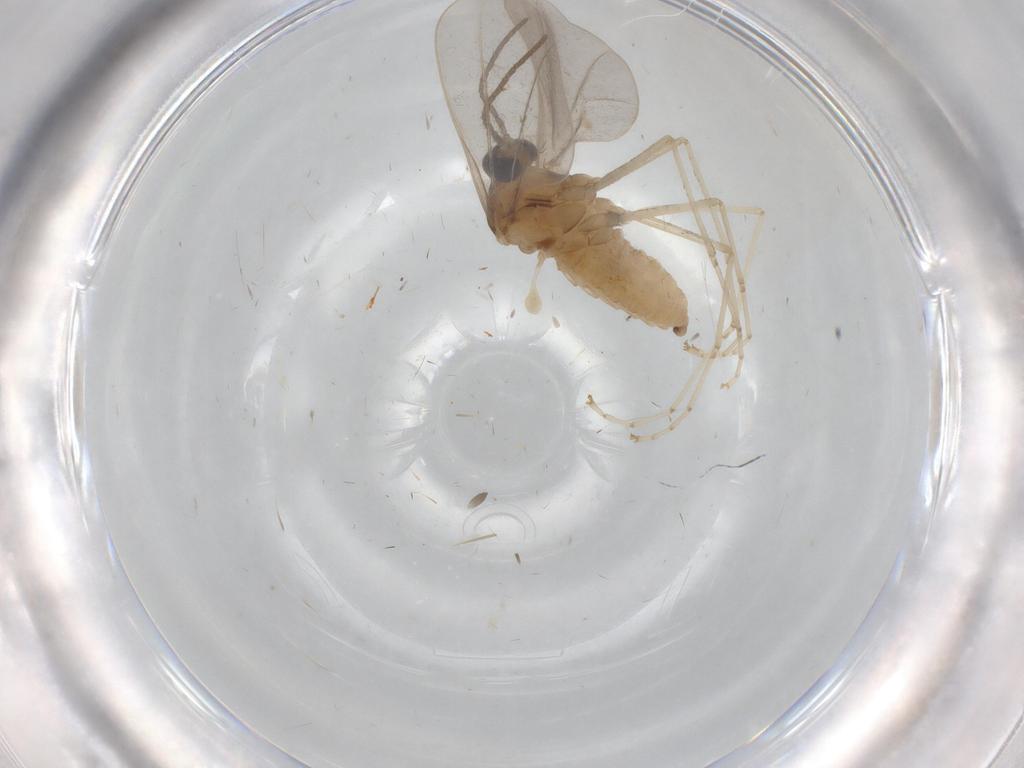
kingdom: Animalia
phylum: Arthropoda
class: Insecta
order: Diptera
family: Cecidomyiidae
